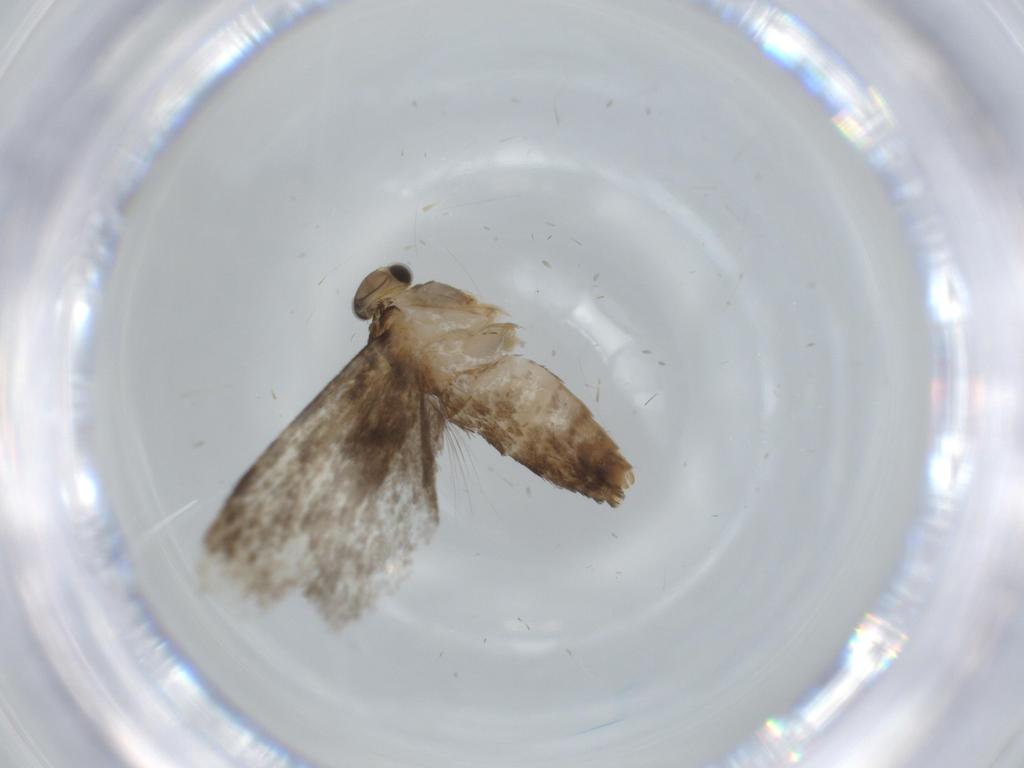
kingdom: Animalia
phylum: Arthropoda
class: Insecta
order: Lepidoptera
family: Tineidae
